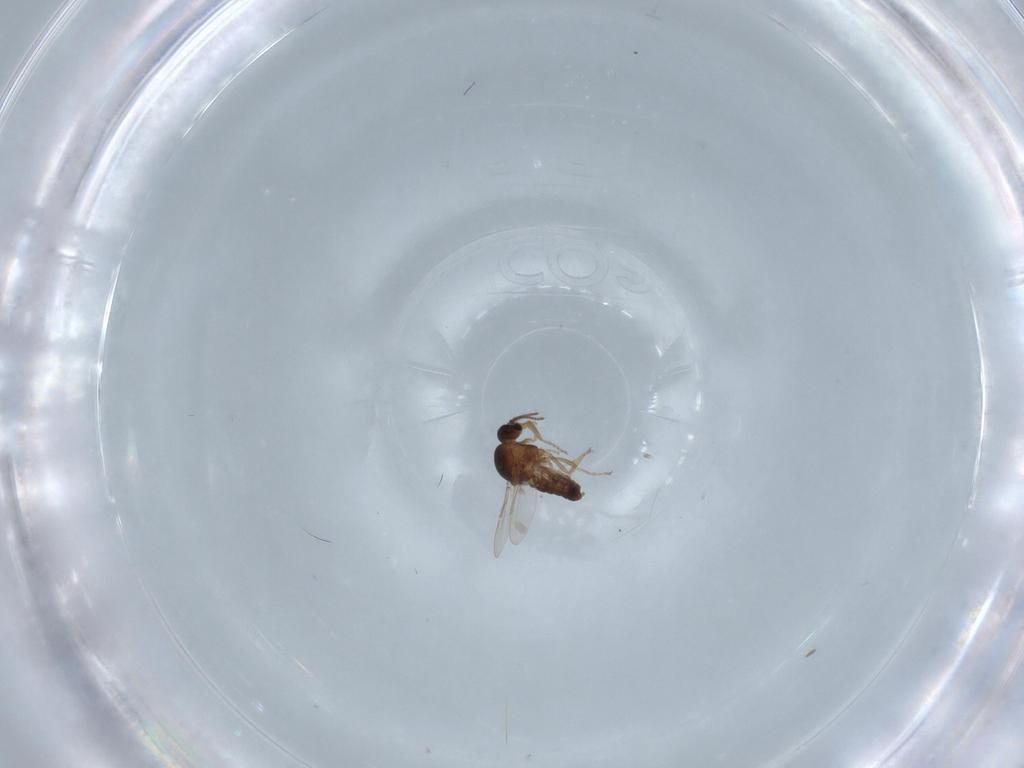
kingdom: Animalia
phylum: Arthropoda
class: Insecta
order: Diptera
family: Ceratopogonidae
